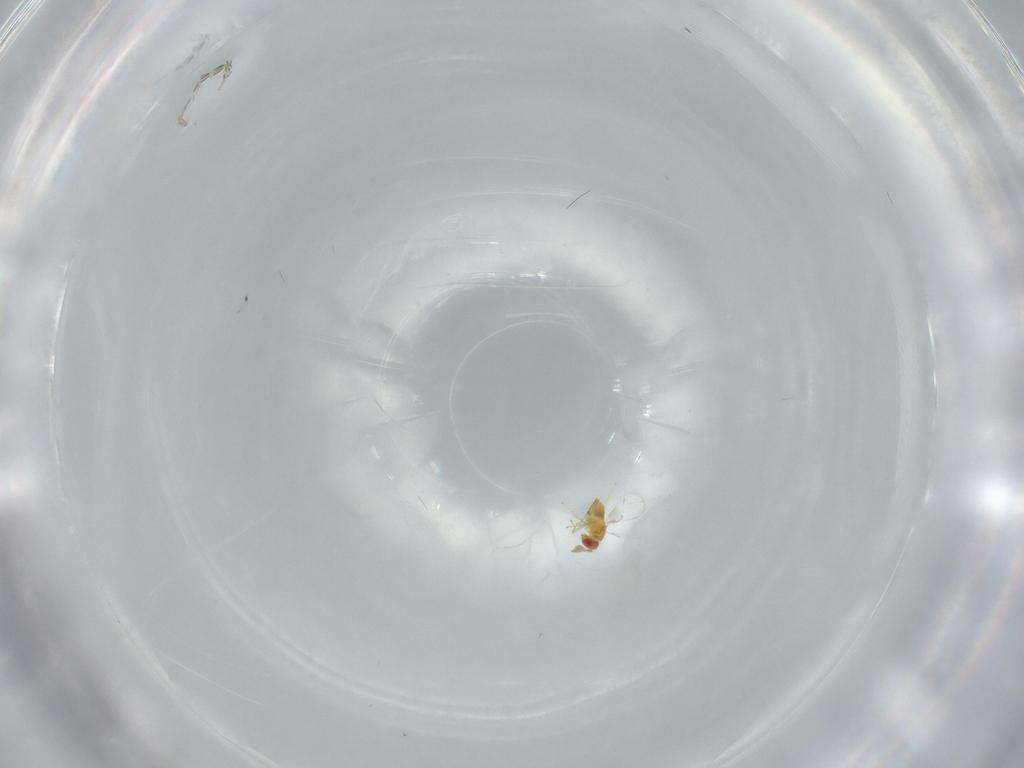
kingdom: Animalia
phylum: Arthropoda
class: Insecta
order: Hymenoptera
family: Trichogrammatidae
